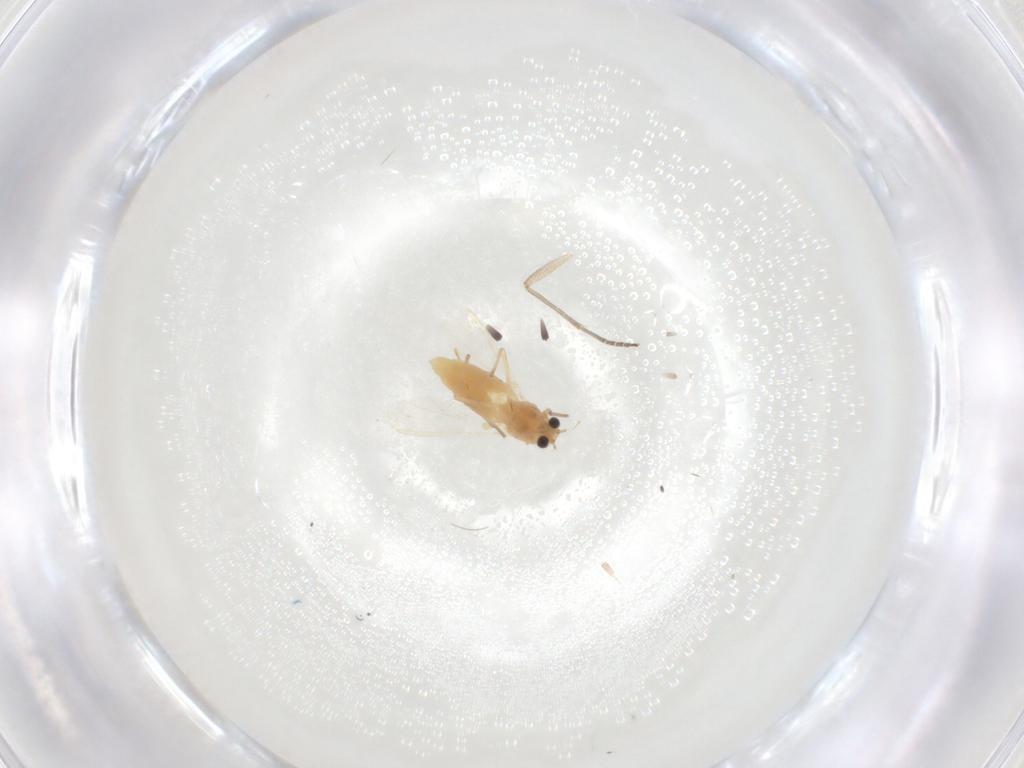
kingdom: Animalia
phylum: Arthropoda
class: Insecta
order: Diptera
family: Chironomidae
